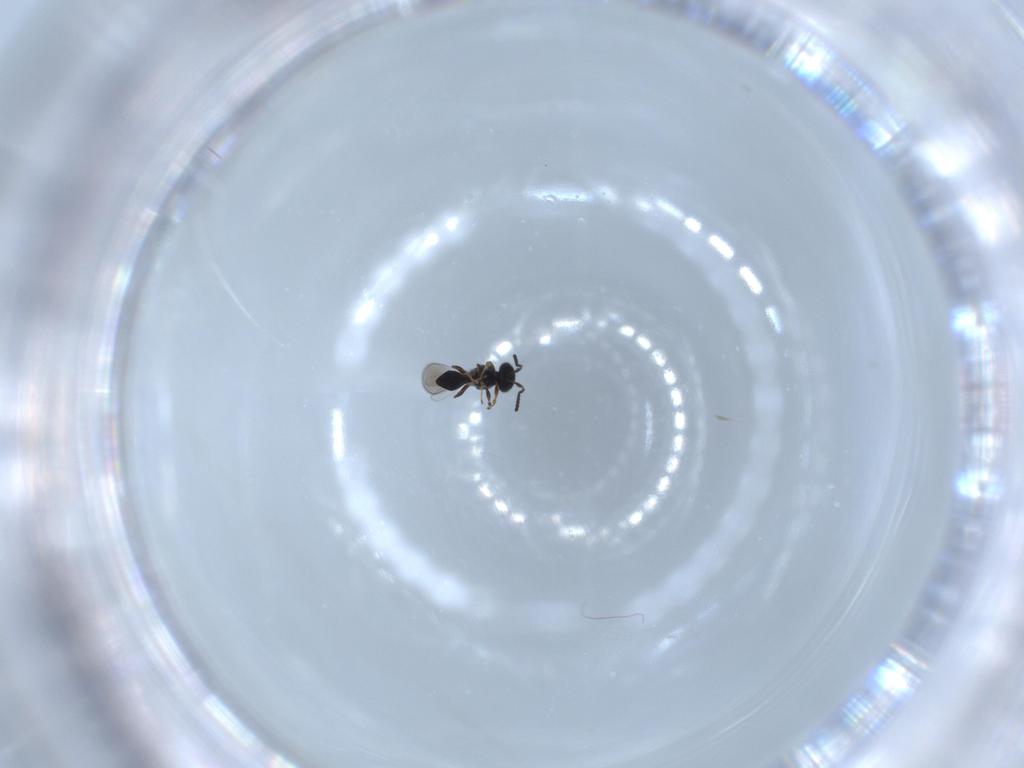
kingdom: Animalia
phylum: Arthropoda
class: Insecta
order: Hymenoptera
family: Platygastridae
